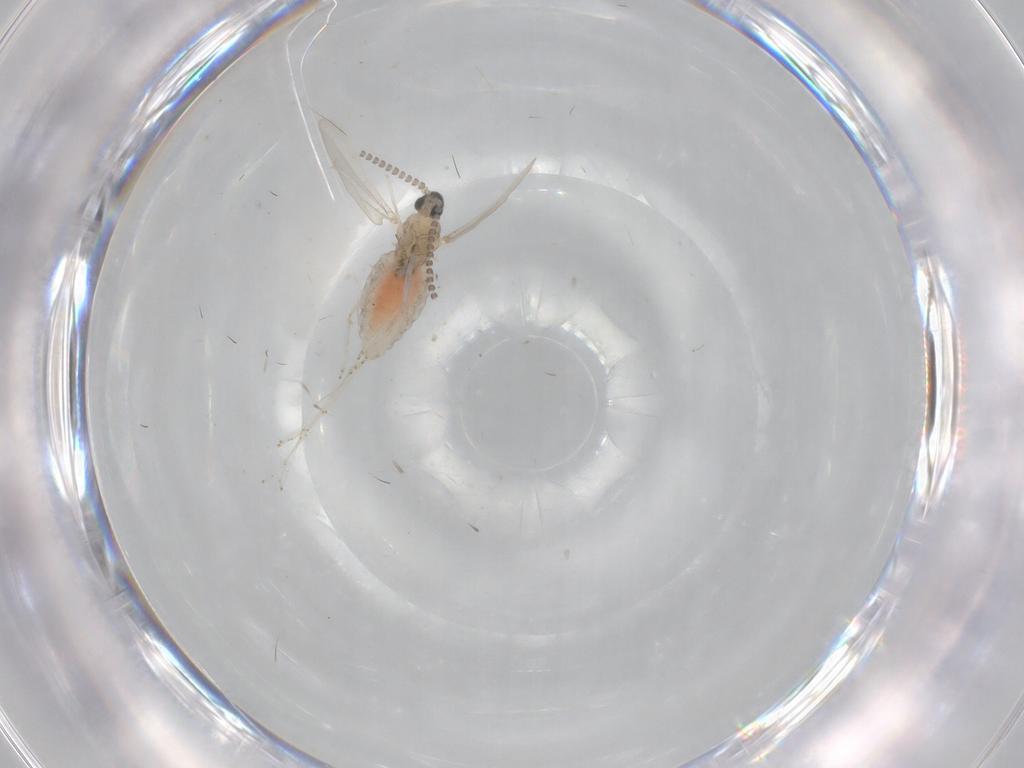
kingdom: Animalia
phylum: Arthropoda
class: Insecta
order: Diptera
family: Cecidomyiidae
